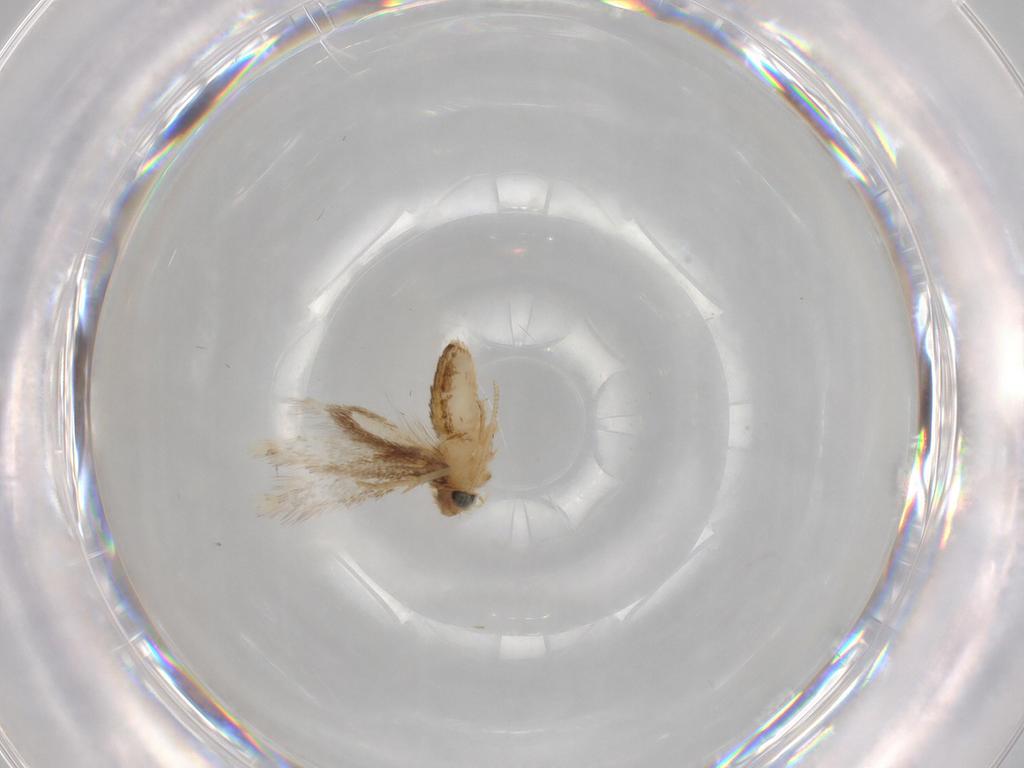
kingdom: Animalia
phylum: Arthropoda
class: Insecta
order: Lepidoptera
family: Nepticulidae
